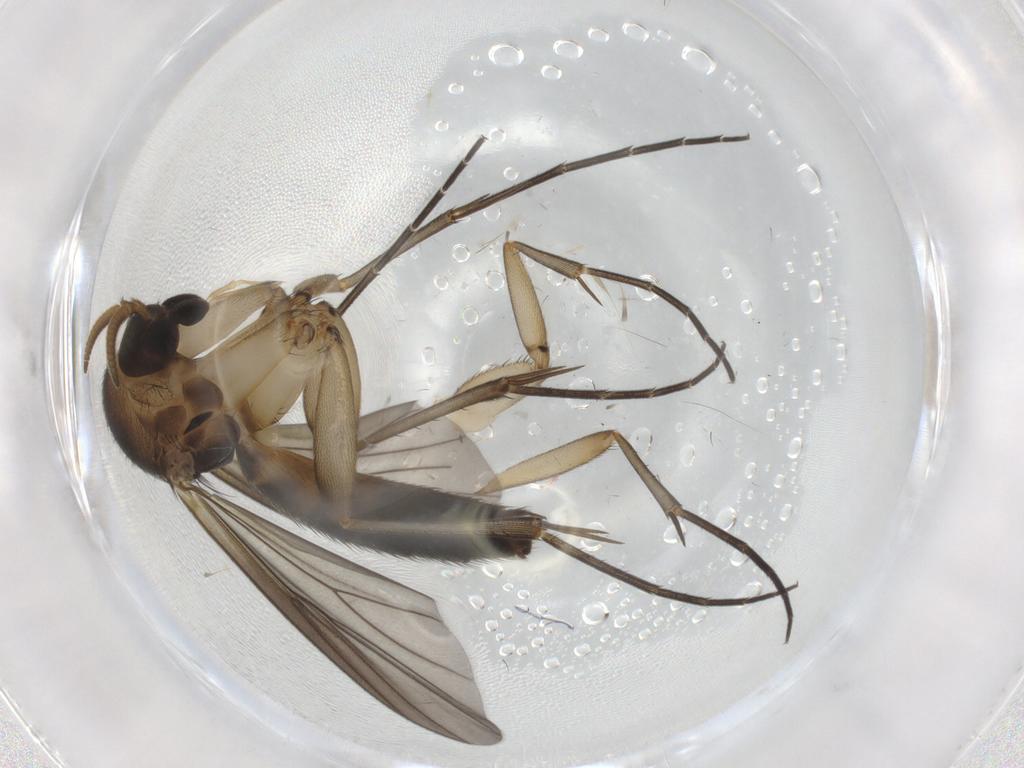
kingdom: Animalia
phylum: Arthropoda
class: Insecta
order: Diptera
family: Mycetophilidae
